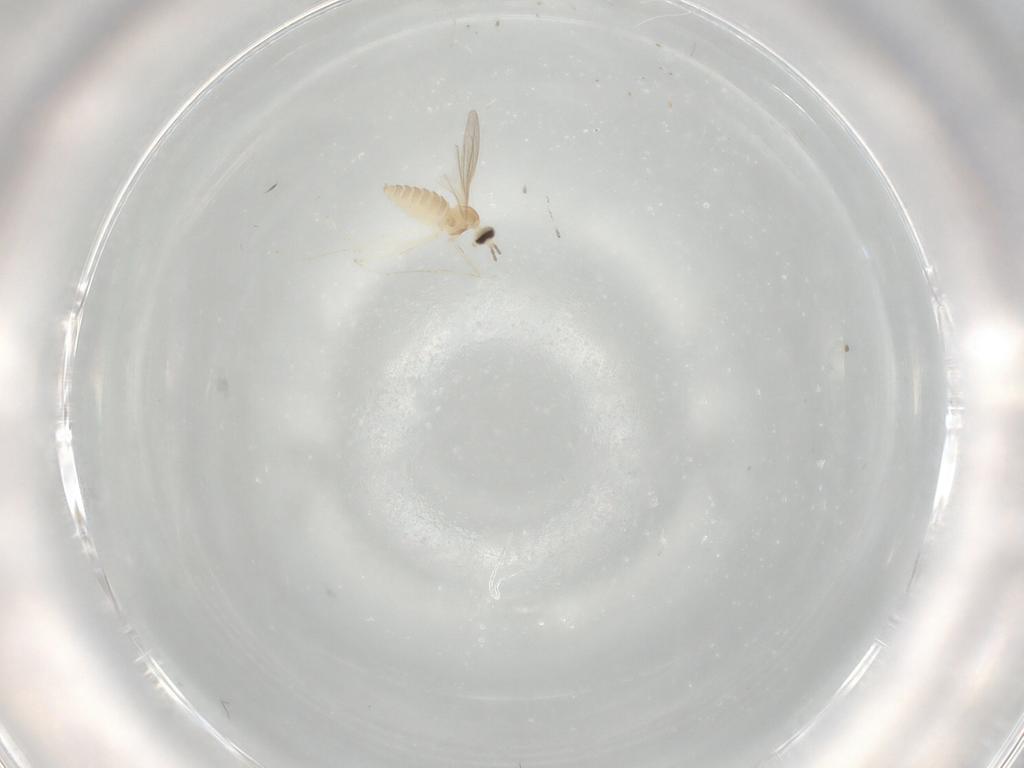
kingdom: Animalia
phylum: Arthropoda
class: Insecta
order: Diptera
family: Cecidomyiidae
